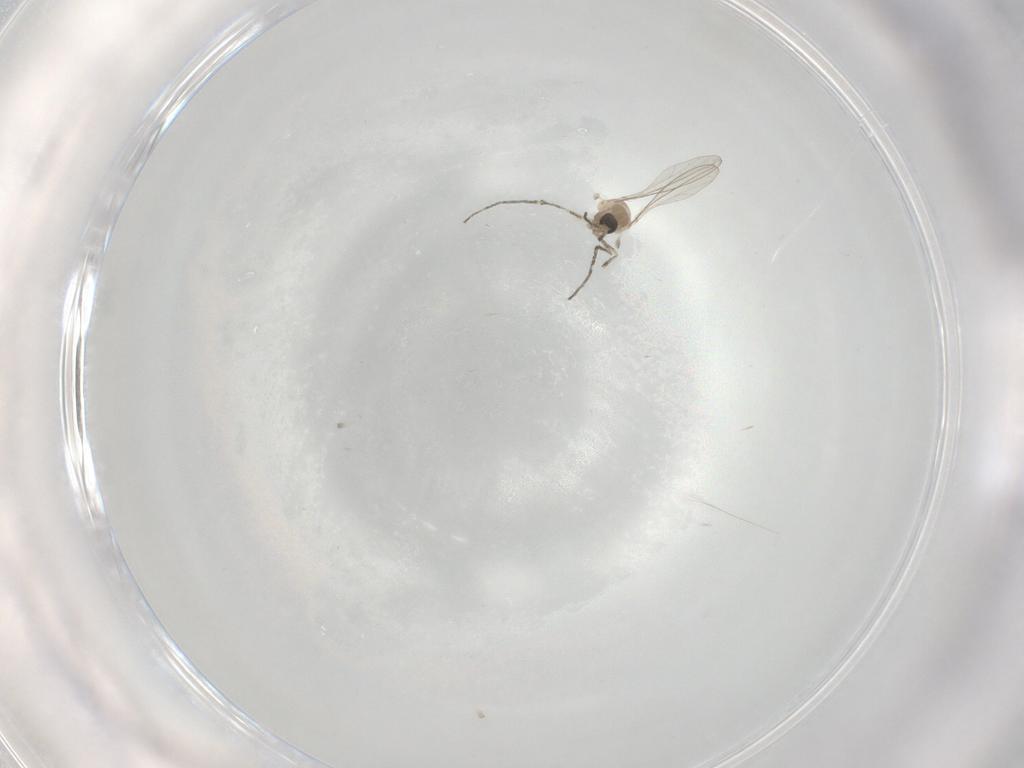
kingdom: Animalia
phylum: Arthropoda
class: Insecta
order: Diptera
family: Cecidomyiidae
